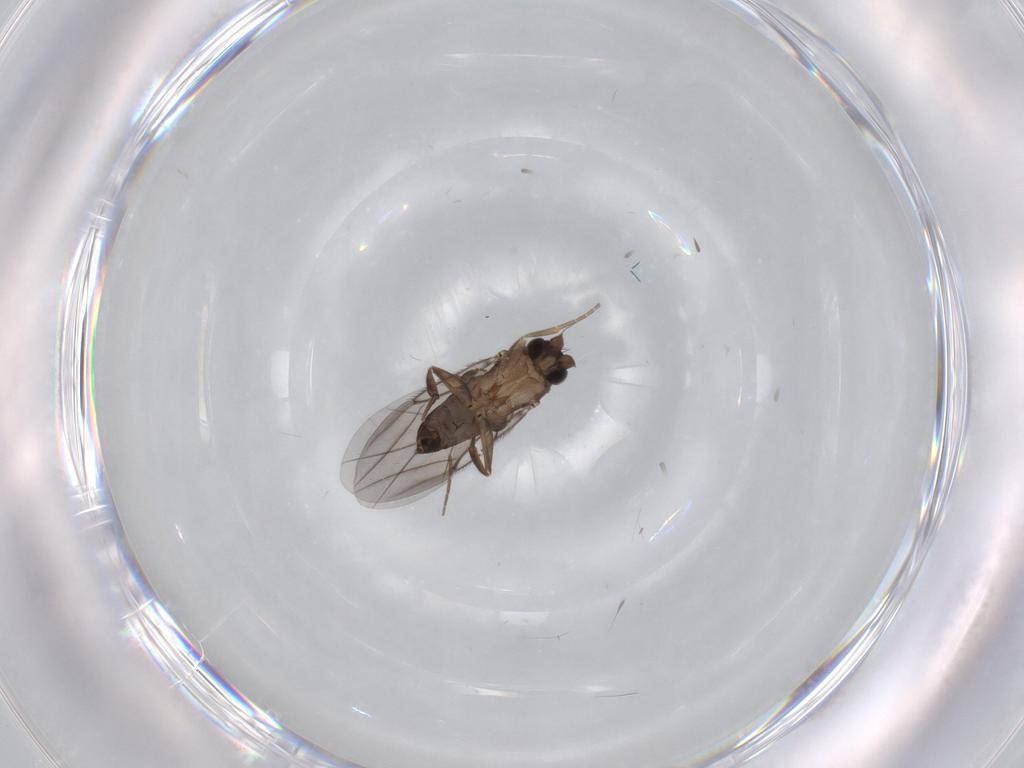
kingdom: Animalia
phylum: Arthropoda
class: Insecta
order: Diptera
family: Phoridae
